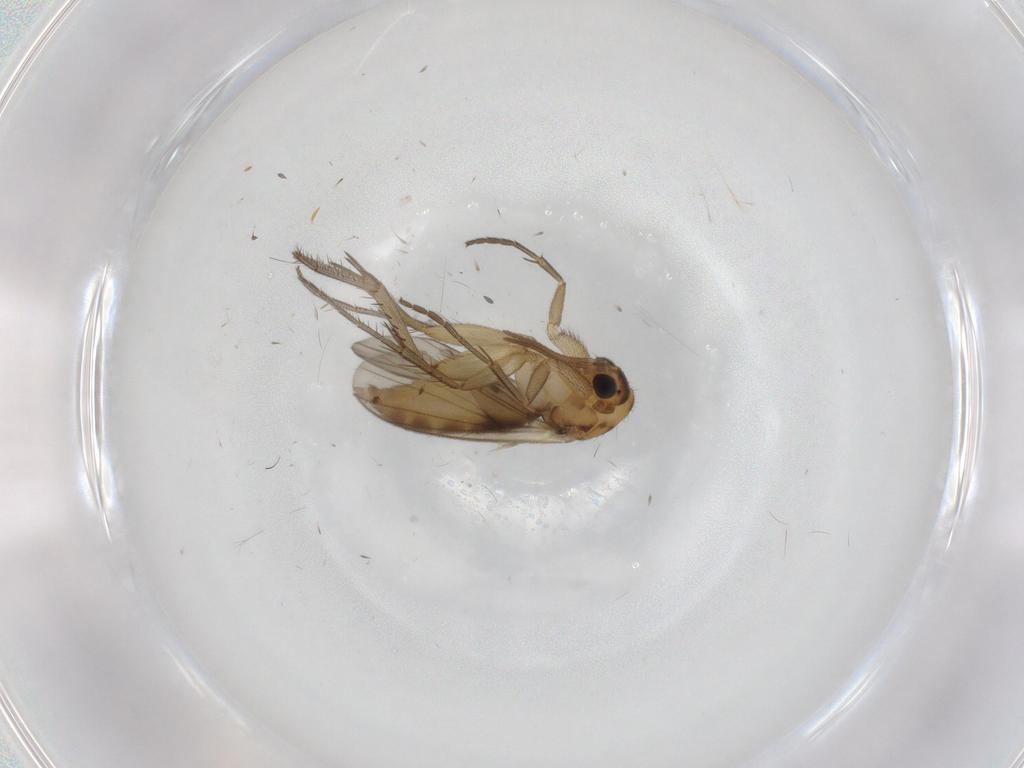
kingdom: Animalia
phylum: Arthropoda
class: Insecta
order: Diptera
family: Mycetophilidae
